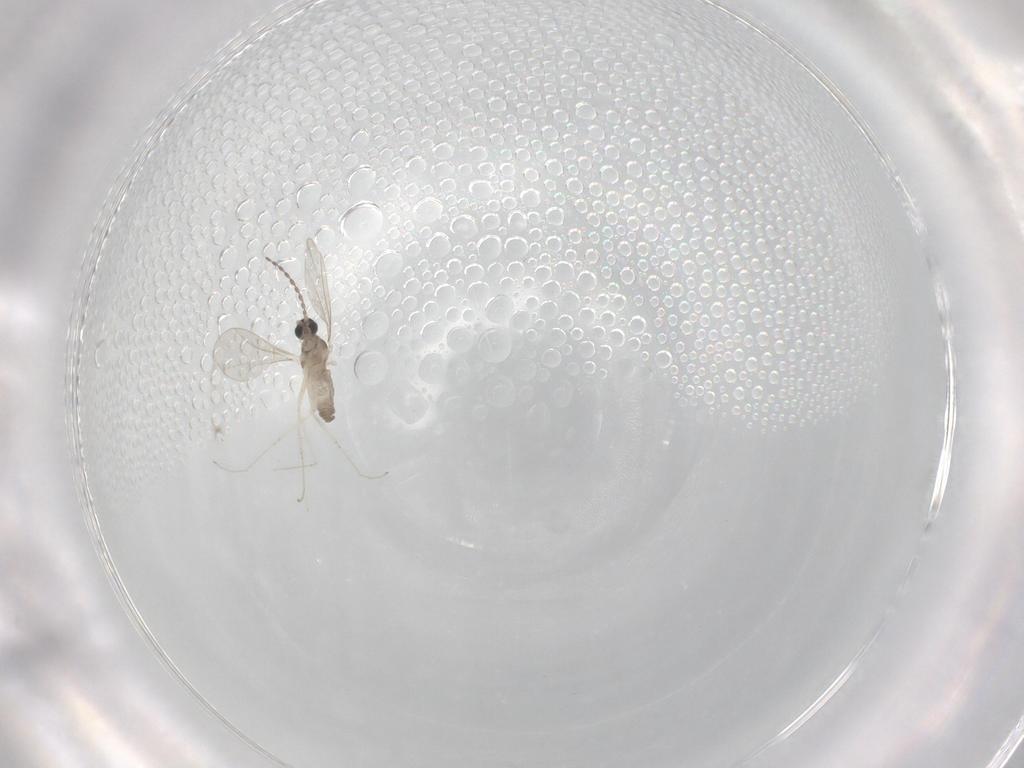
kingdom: Animalia
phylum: Arthropoda
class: Insecta
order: Diptera
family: Cecidomyiidae
